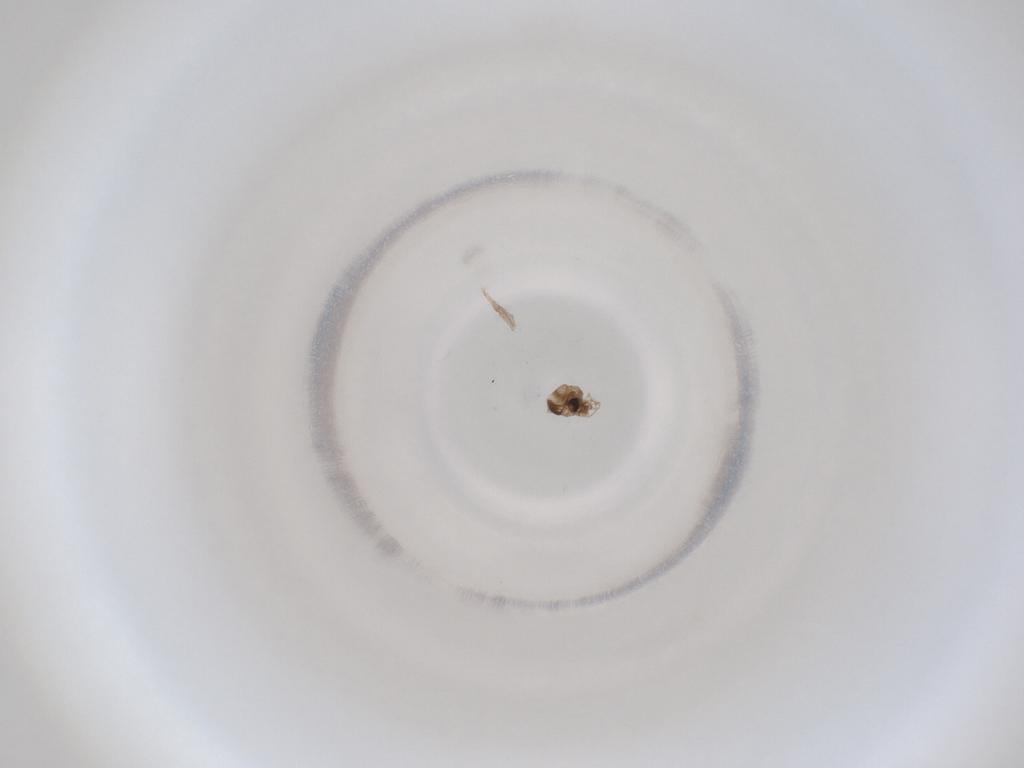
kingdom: Animalia
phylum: Arthropoda
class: Insecta
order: Diptera
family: Cecidomyiidae
